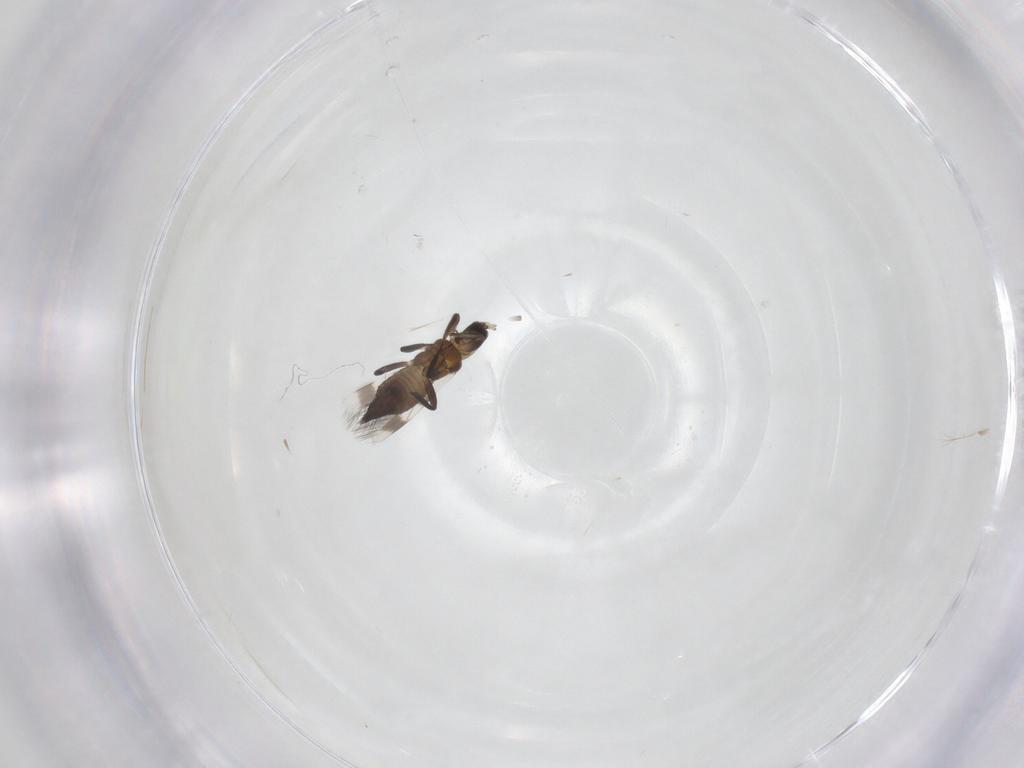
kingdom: Animalia
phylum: Arthropoda
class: Insecta
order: Thysanoptera
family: Aeolothripidae
